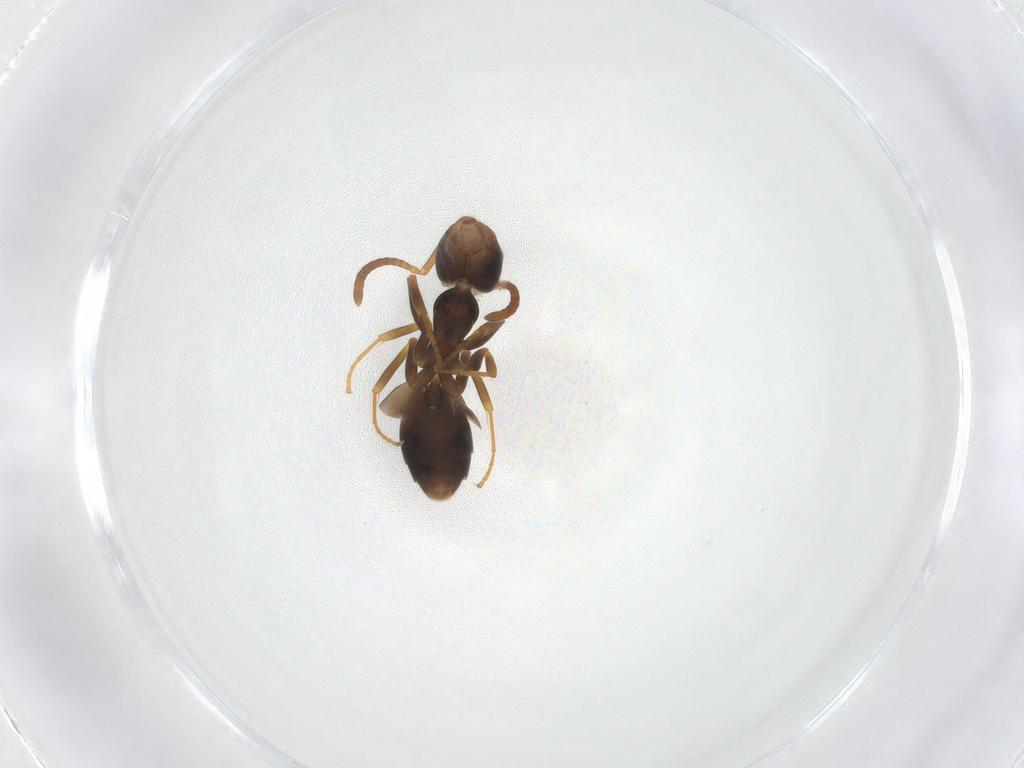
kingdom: Animalia
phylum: Arthropoda
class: Insecta
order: Hymenoptera
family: Formicidae
